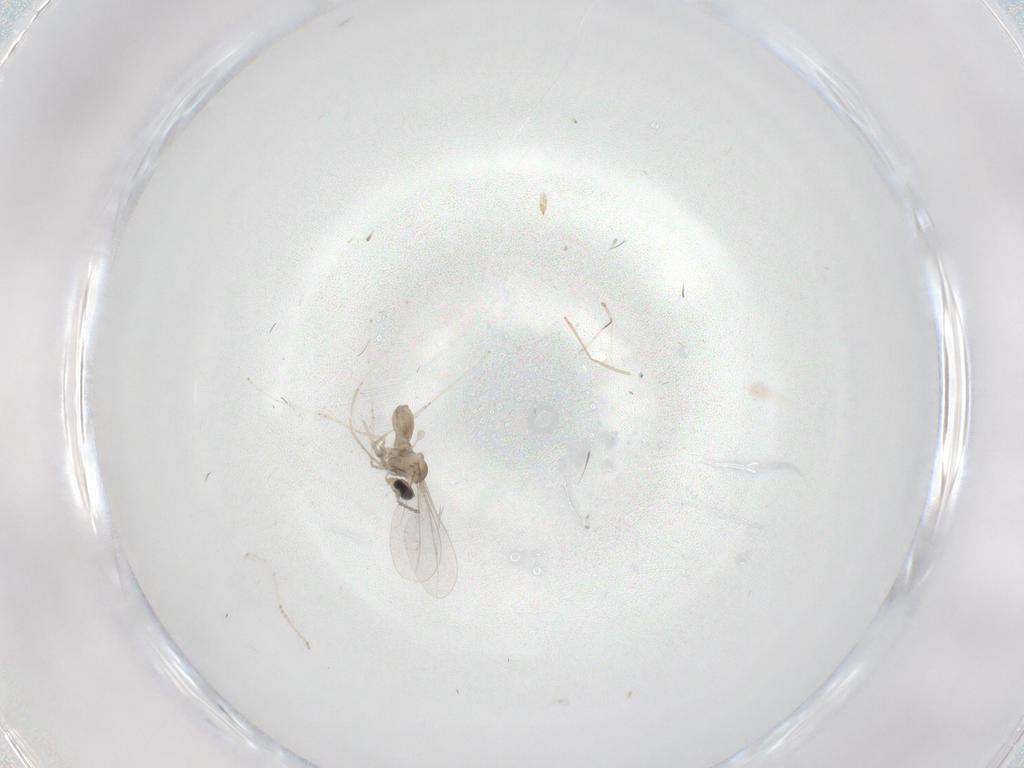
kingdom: Animalia
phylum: Arthropoda
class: Insecta
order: Diptera
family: Cecidomyiidae
